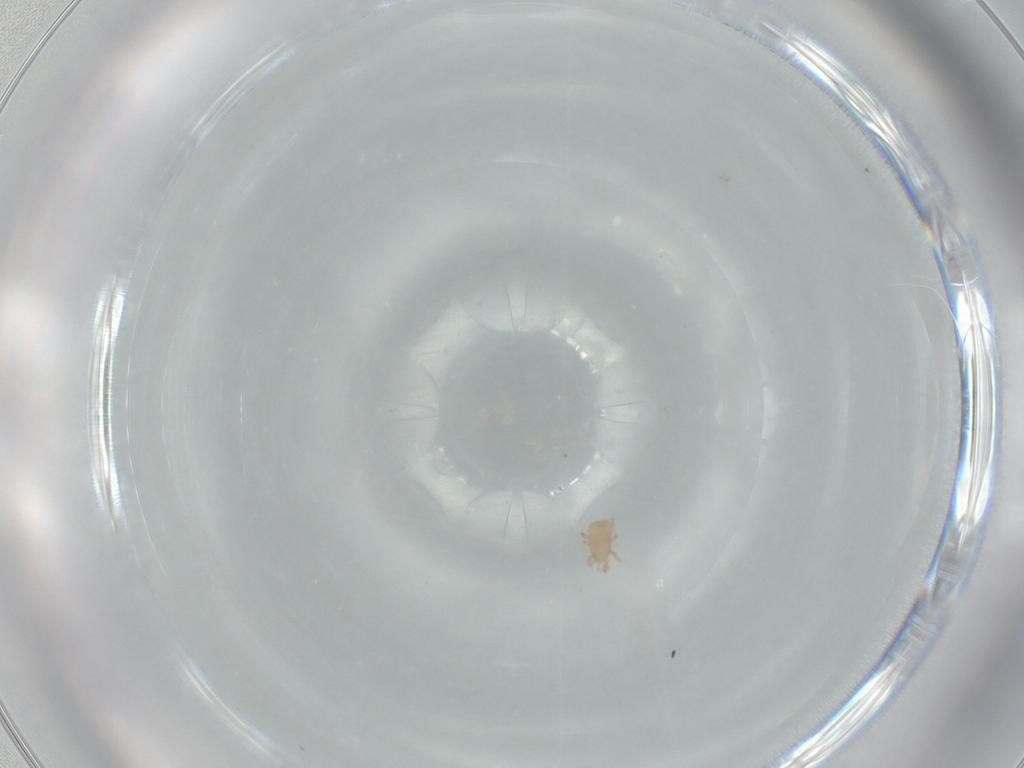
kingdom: Animalia
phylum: Arthropoda
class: Arachnida
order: Mesostigmata
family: Ascidae
